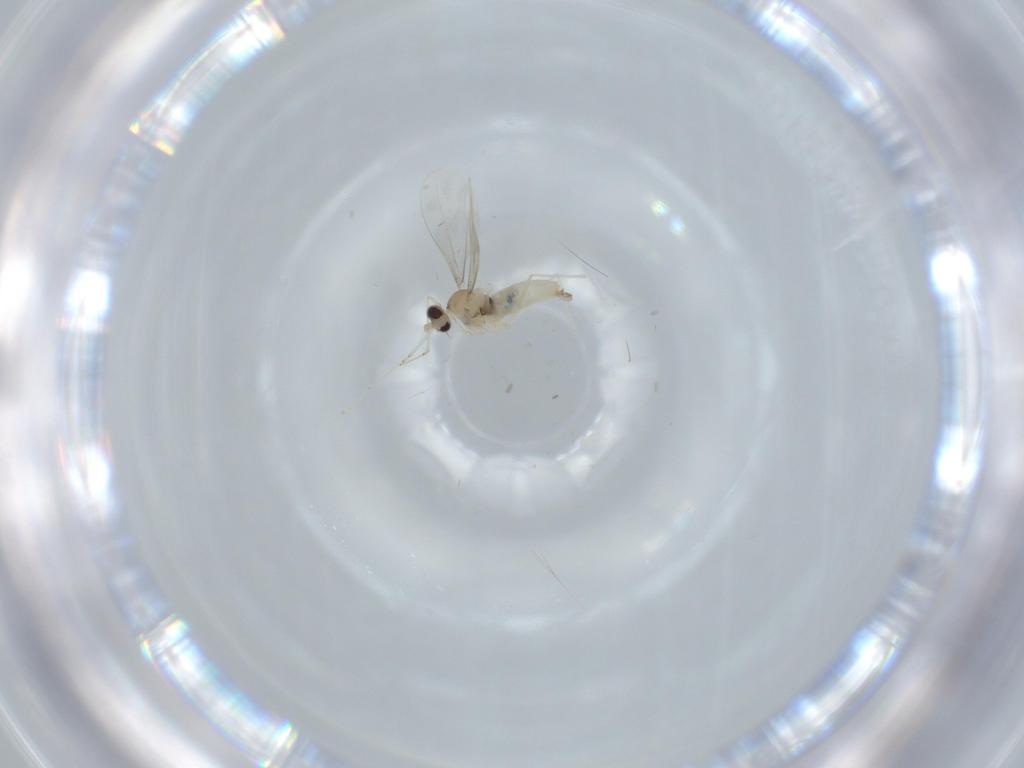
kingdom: Animalia
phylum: Arthropoda
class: Insecta
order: Diptera
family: Cecidomyiidae
